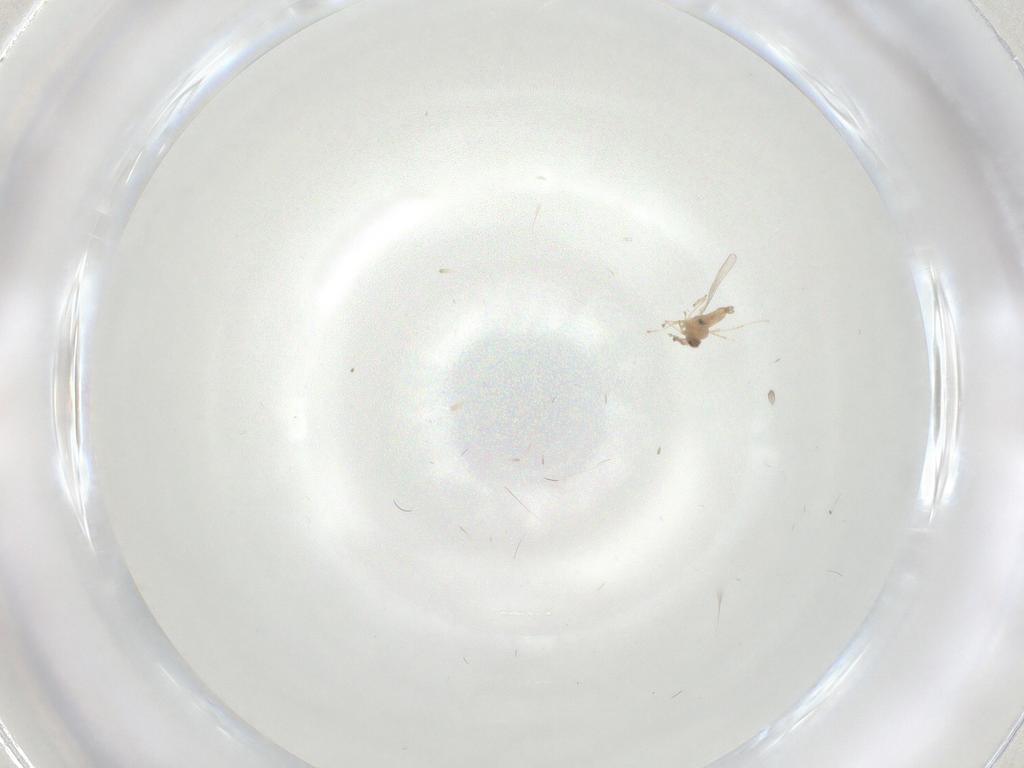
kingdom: Animalia
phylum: Arthropoda
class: Insecta
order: Diptera
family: Cecidomyiidae
